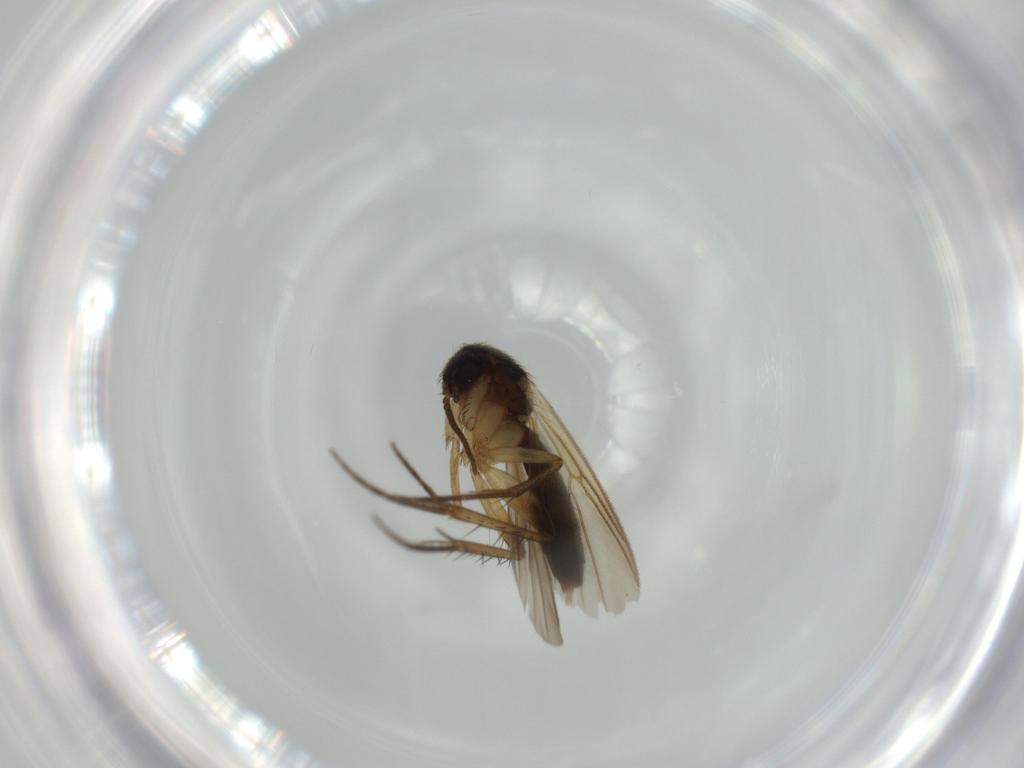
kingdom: Animalia
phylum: Arthropoda
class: Insecta
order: Diptera
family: Mycetophilidae
